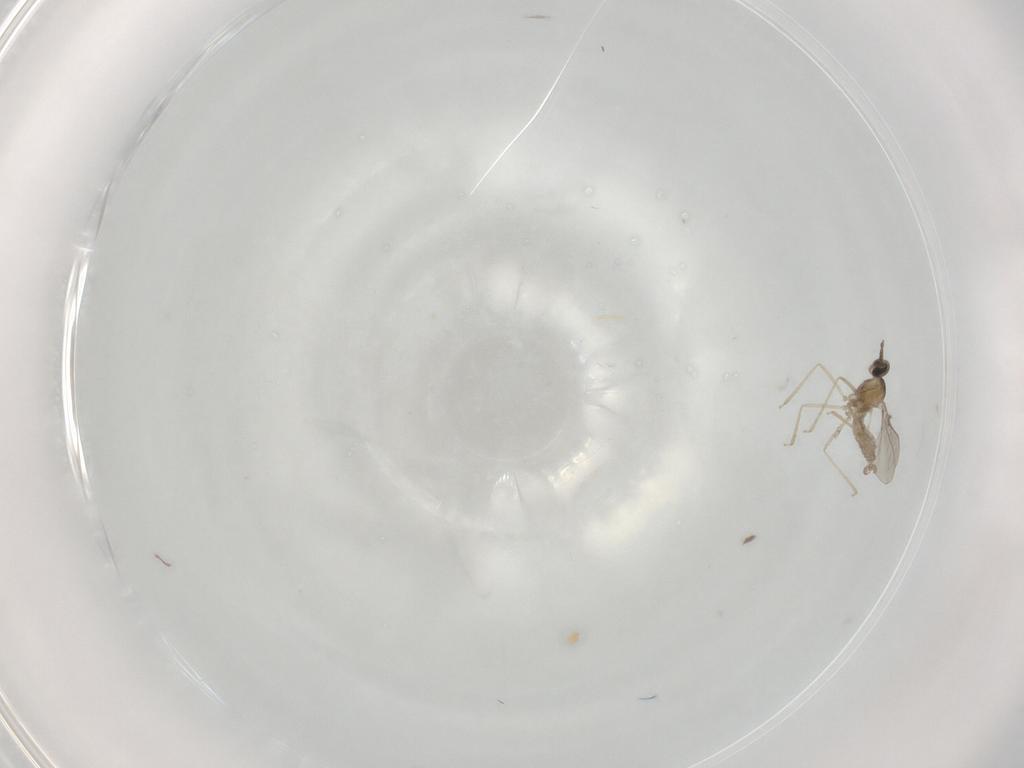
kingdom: Animalia
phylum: Arthropoda
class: Insecta
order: Diptera
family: Cecidomyiidae
